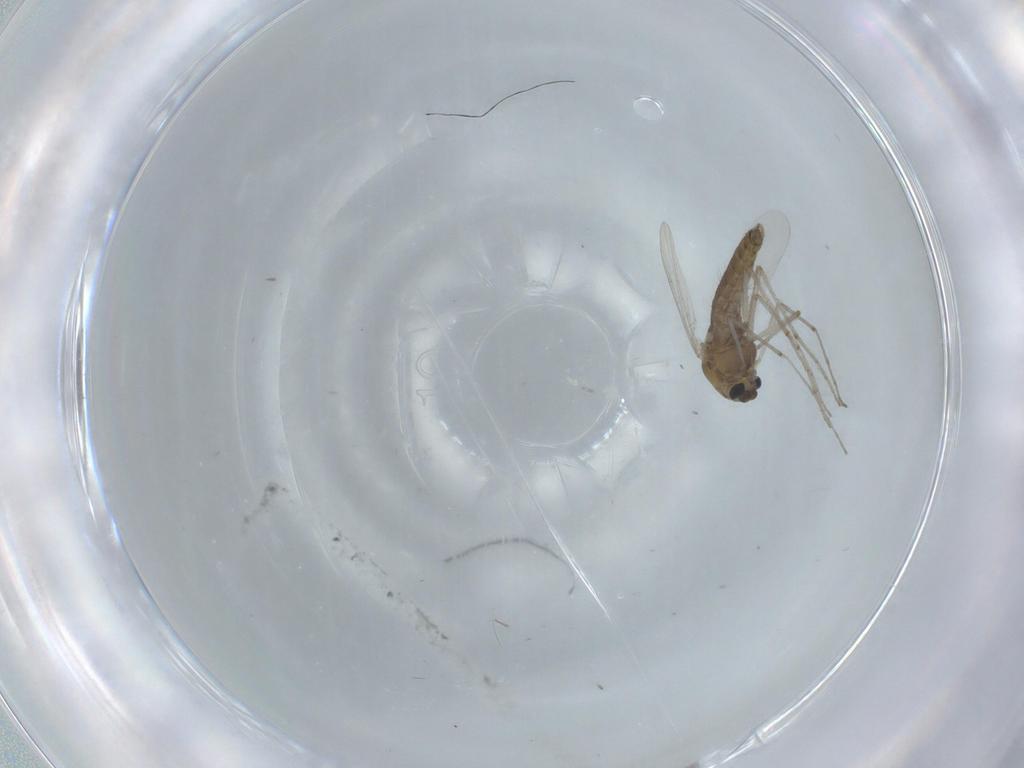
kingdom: Animalia
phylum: Arthropoda
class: Insecta
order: Diptera
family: Chironomidae
